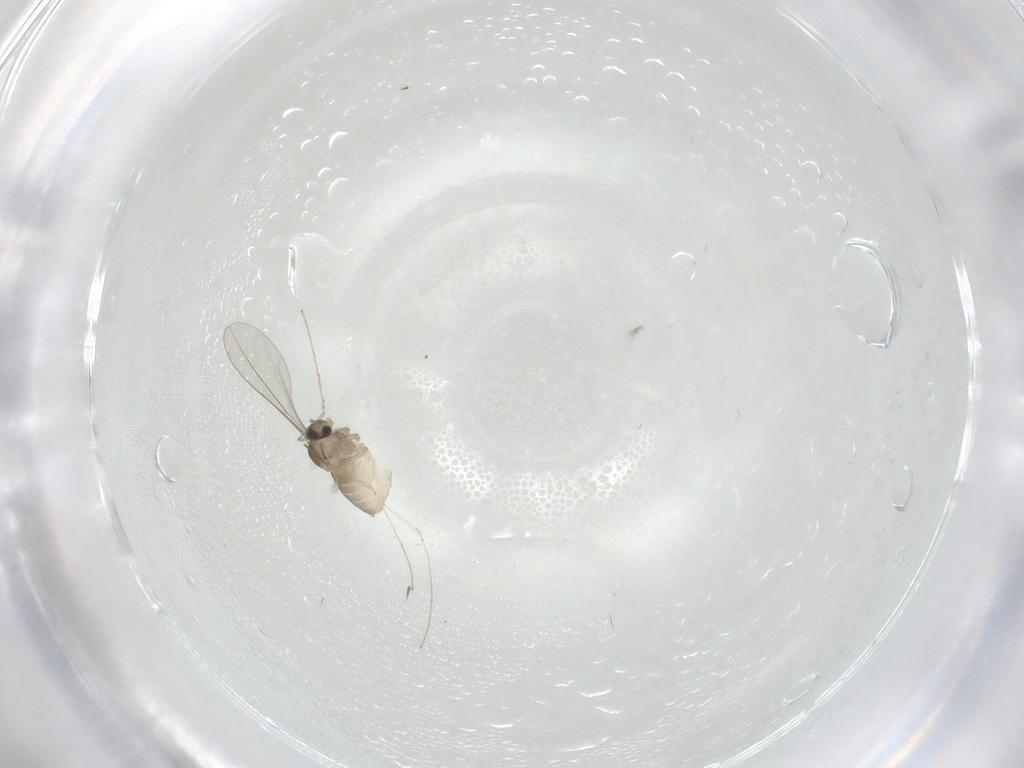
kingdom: Animalia
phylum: Arthropoda
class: Insecta
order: Diptera
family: Cecidomyiidae
